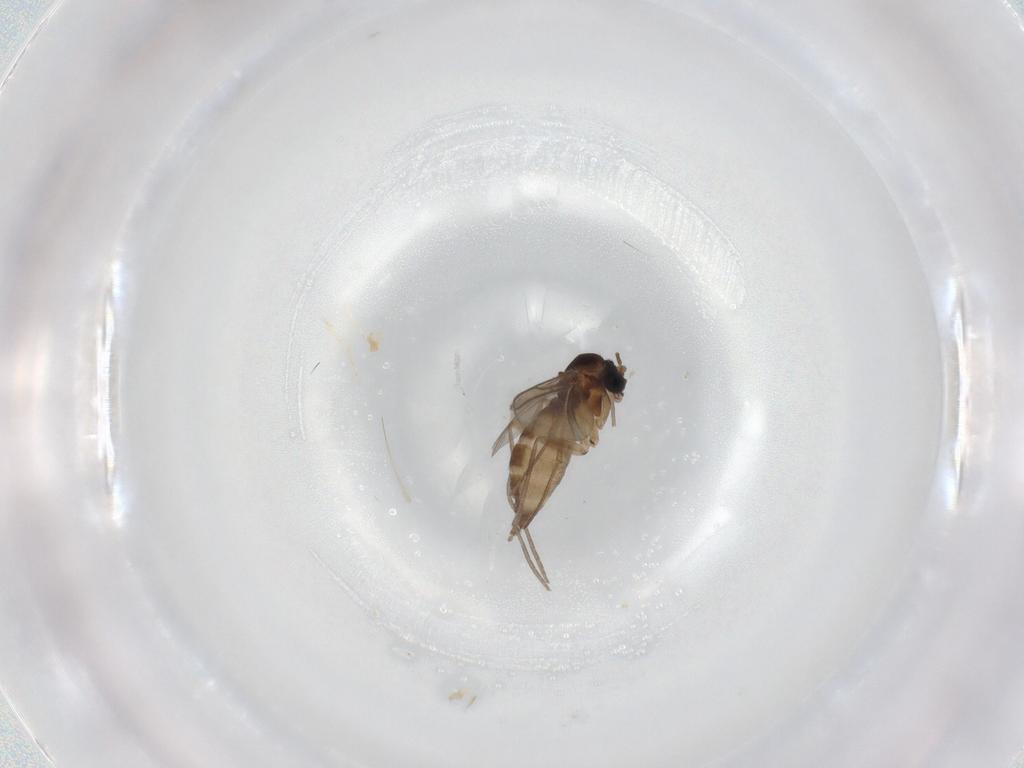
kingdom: Animalia
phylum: Arthropoda
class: Insecta
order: Diptera
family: Sciaridae
